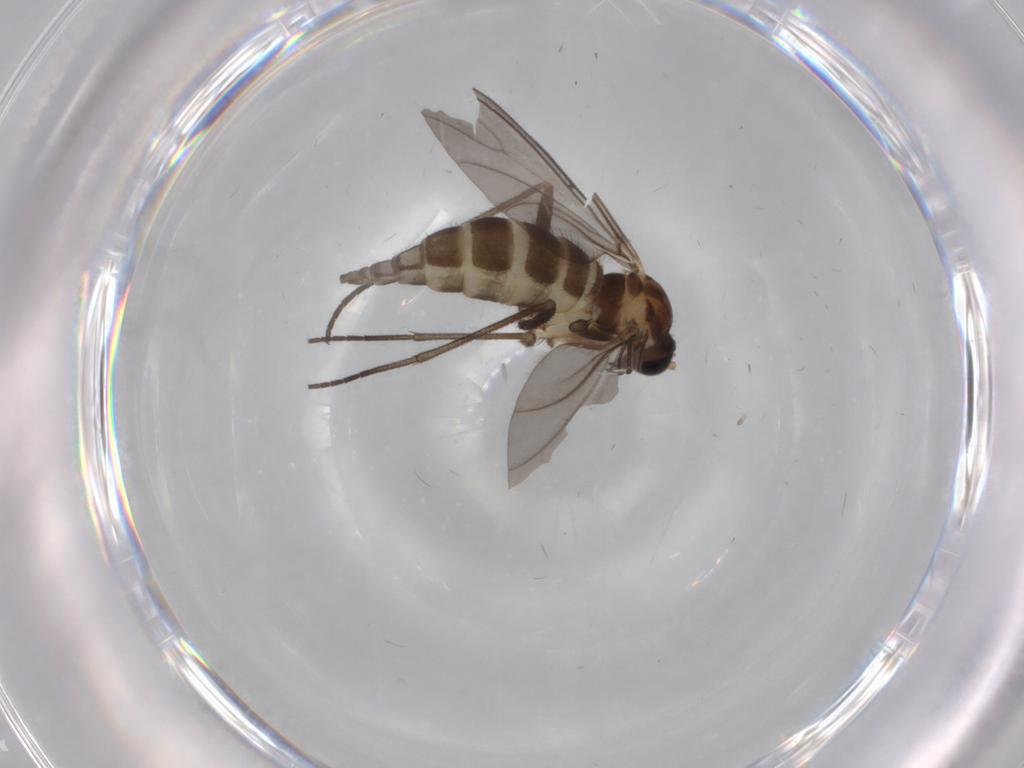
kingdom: Animalia
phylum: Arthropoda
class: Insecta
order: Diptera
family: Sciaridae
